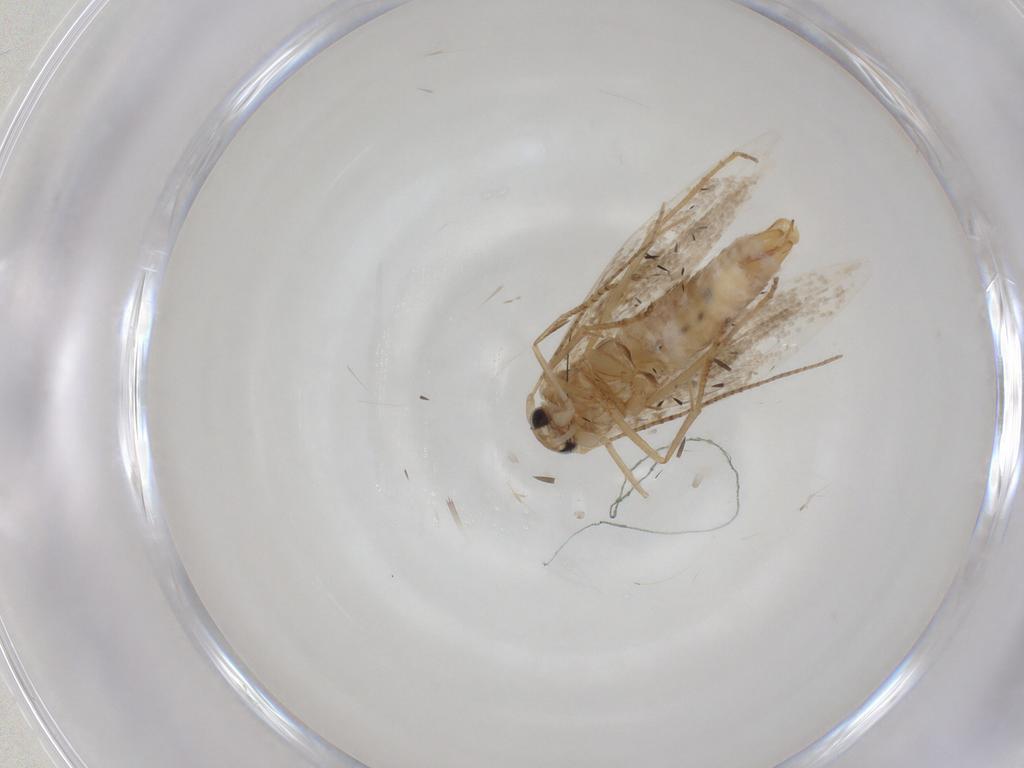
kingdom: Animalia
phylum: Arthropoda
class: Insecta
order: Lepidoptera
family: Bucculatricidae
